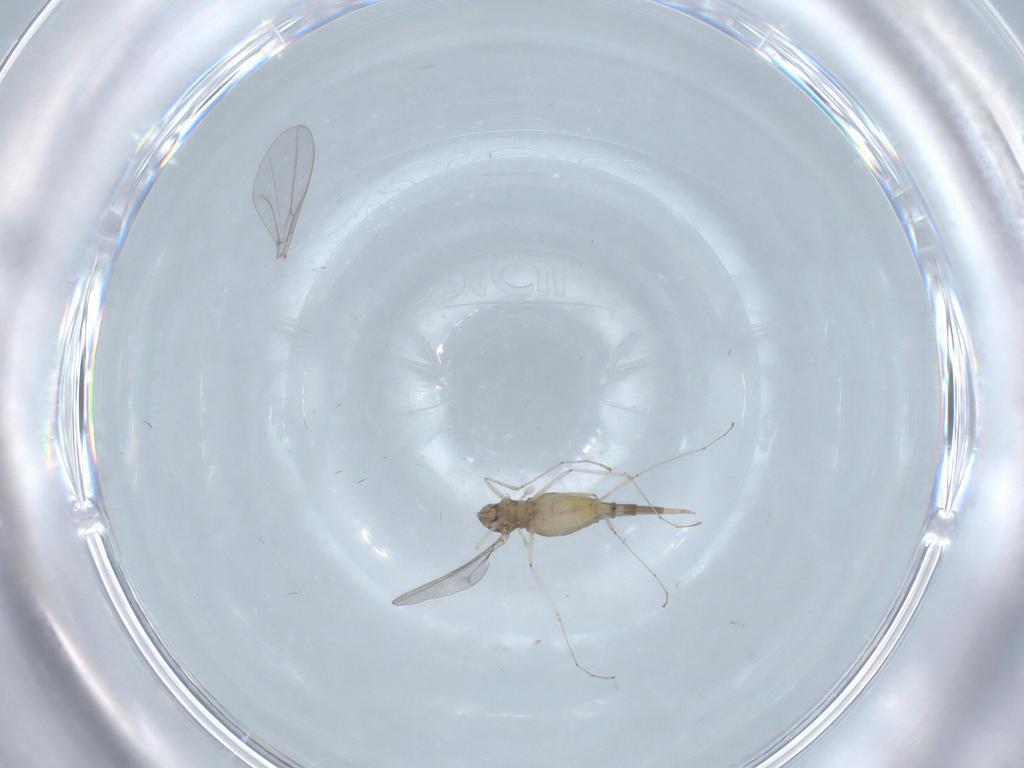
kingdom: Animalia
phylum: Arthropoda
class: Insecta
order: Diptera
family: Cecidomyiidae
